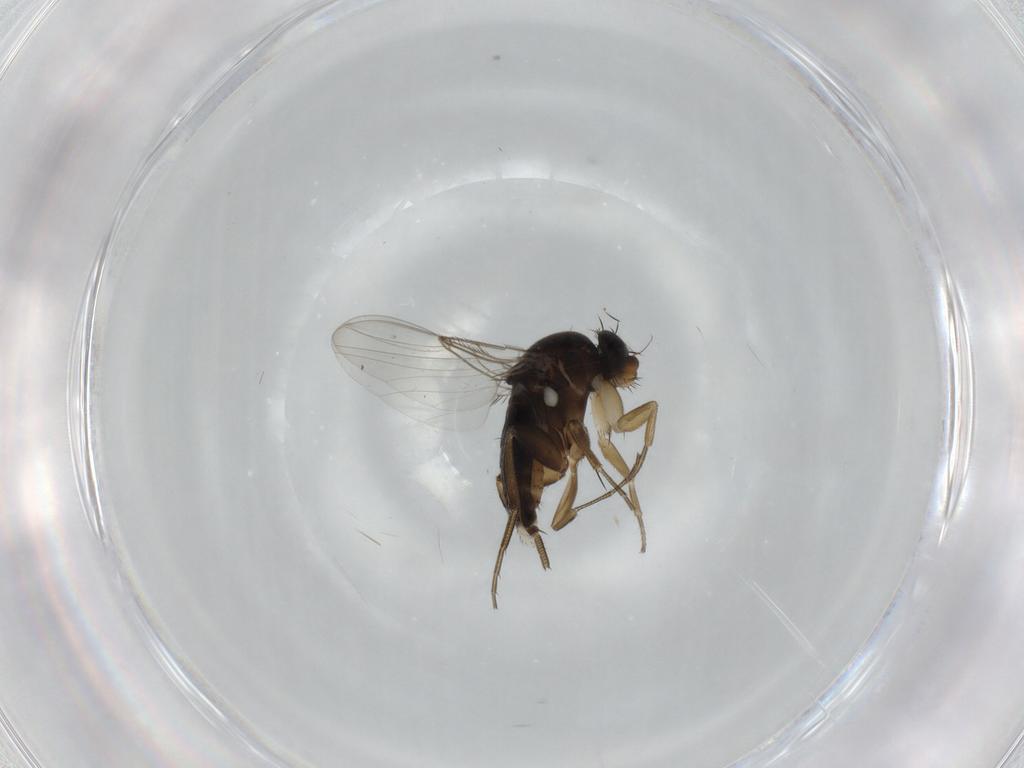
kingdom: Animalia
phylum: Arthropoda
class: Insecta
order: Diptera
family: Phoridae
